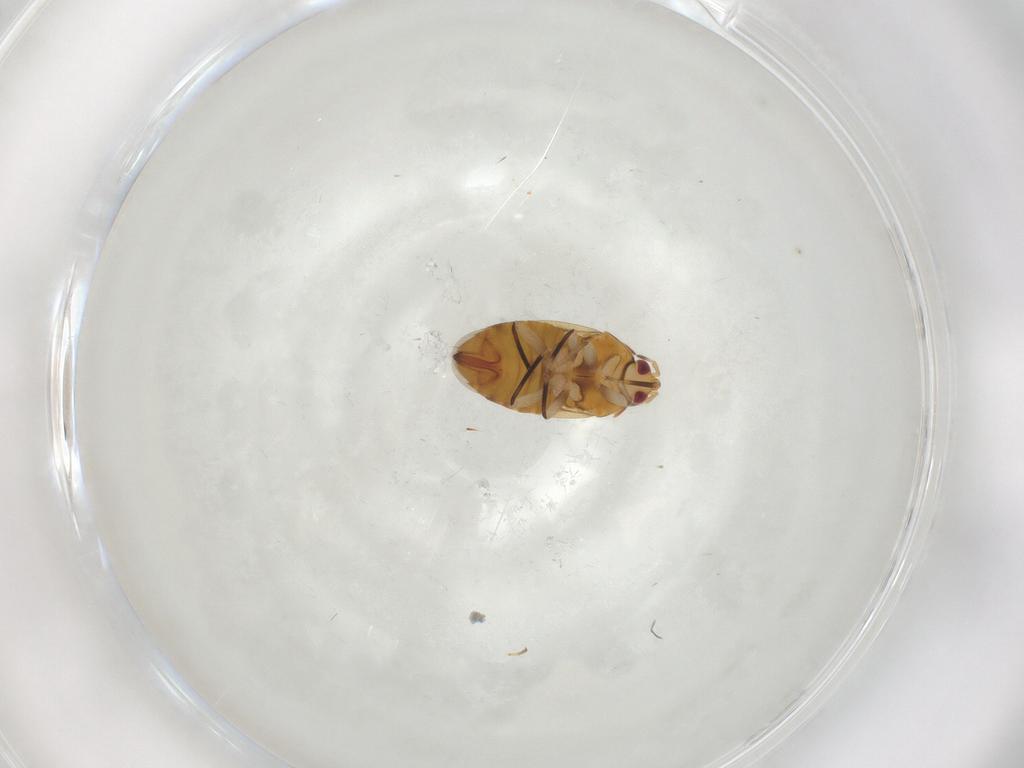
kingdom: Animalia
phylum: Arthropoda
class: Insecta
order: Hemiptera
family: Anthocoridae
